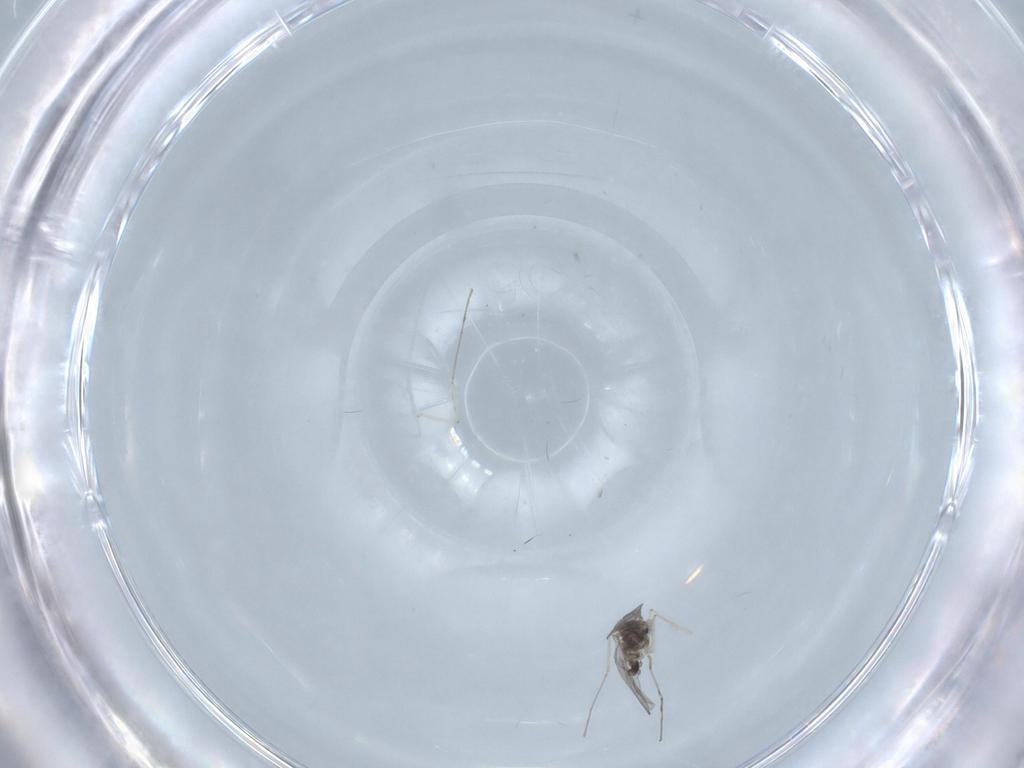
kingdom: Animalia
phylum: Arthropoda
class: Insecta
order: Diptera
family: Cecidomyiidae
